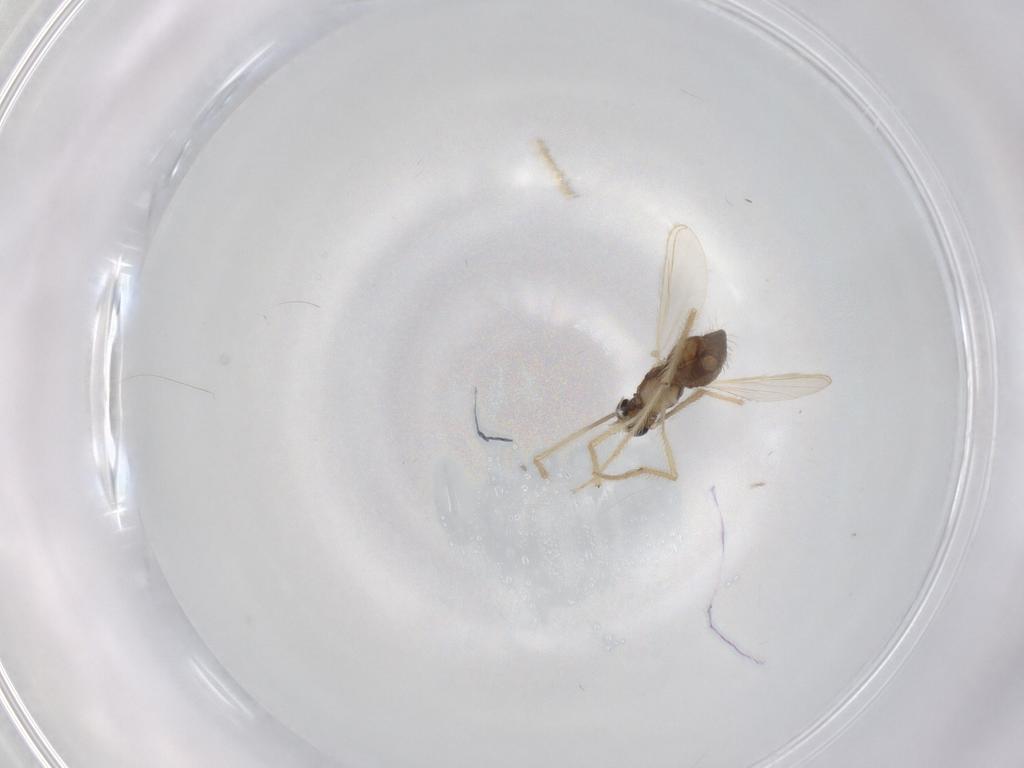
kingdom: Animalia
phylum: Arthropoda
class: Insecta
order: Diptera
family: Chironomidae
